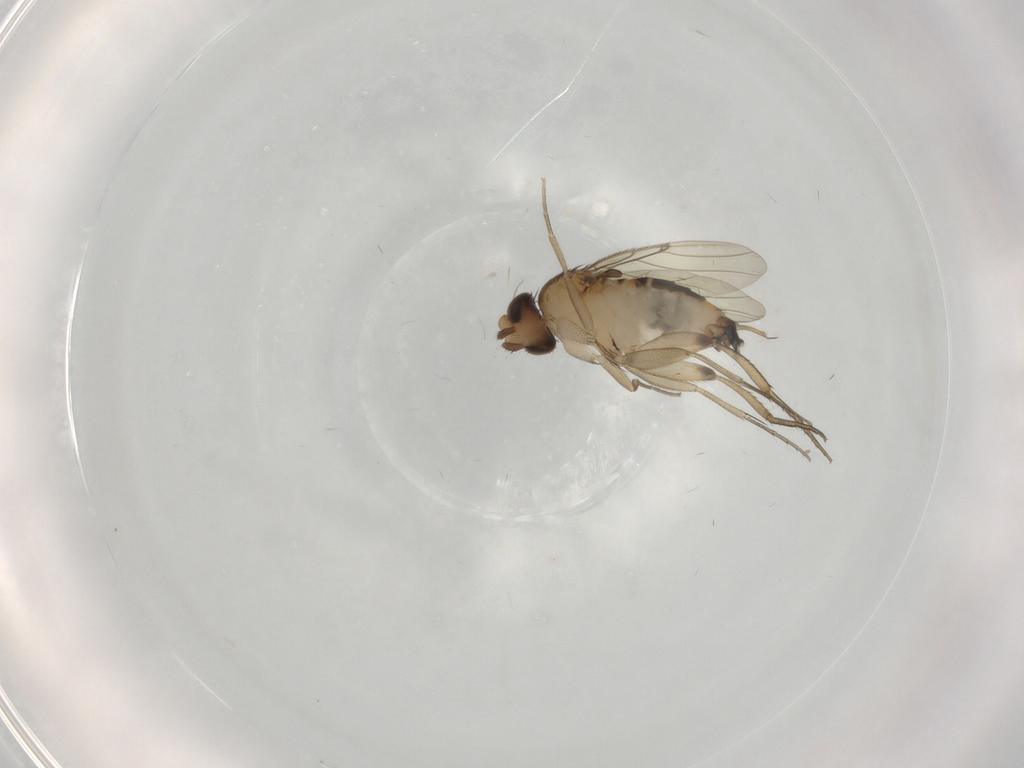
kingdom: Animalia
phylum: Arthropoda
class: Insecta
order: Diptera
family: Phoridae
